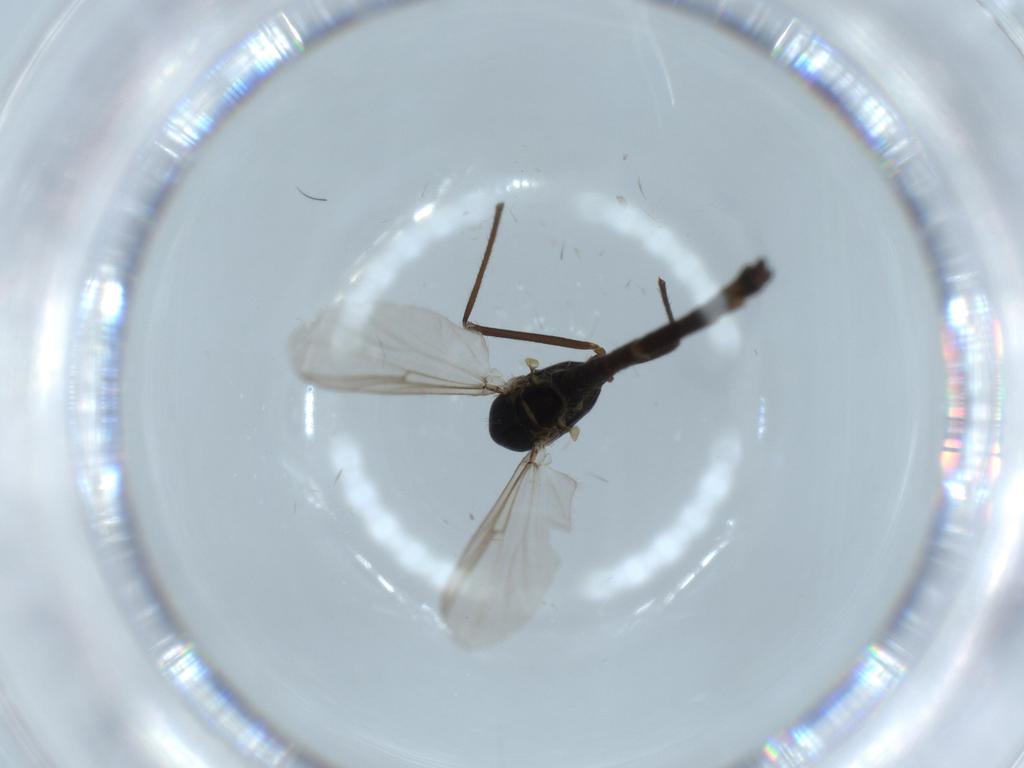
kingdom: Animalia
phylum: Arthropoda
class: Insecta
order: Diptera
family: Chironomidae
